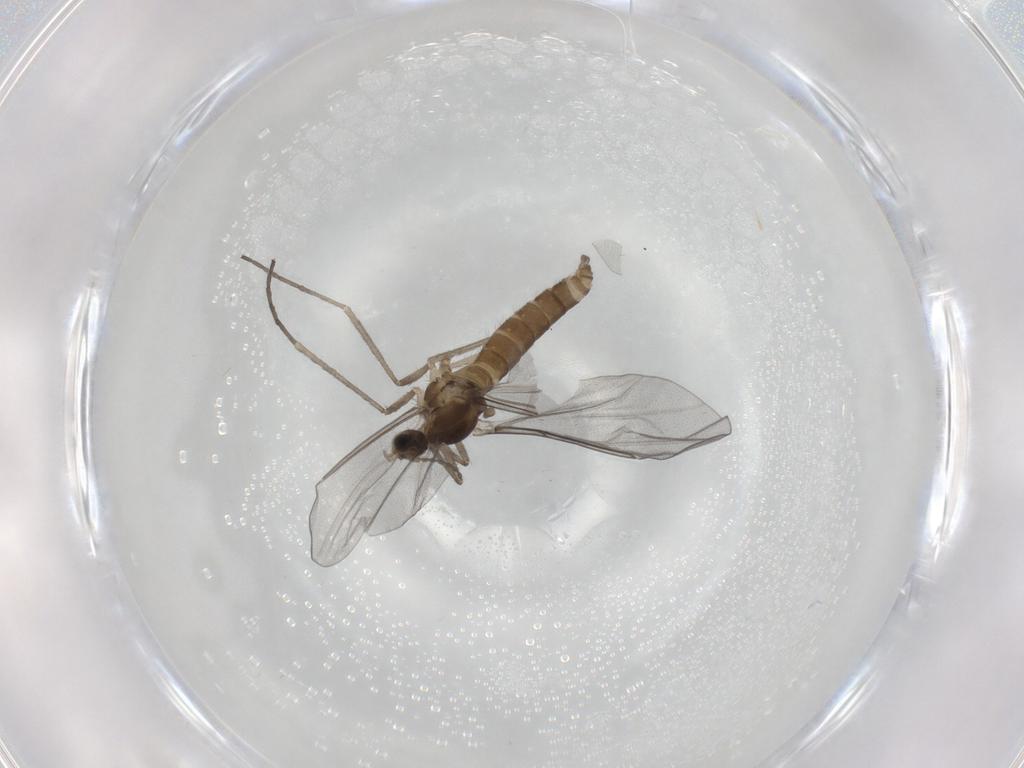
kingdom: Animalia
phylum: Arthropoda
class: Insecta
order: Diptera
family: Cecidomyiidae
